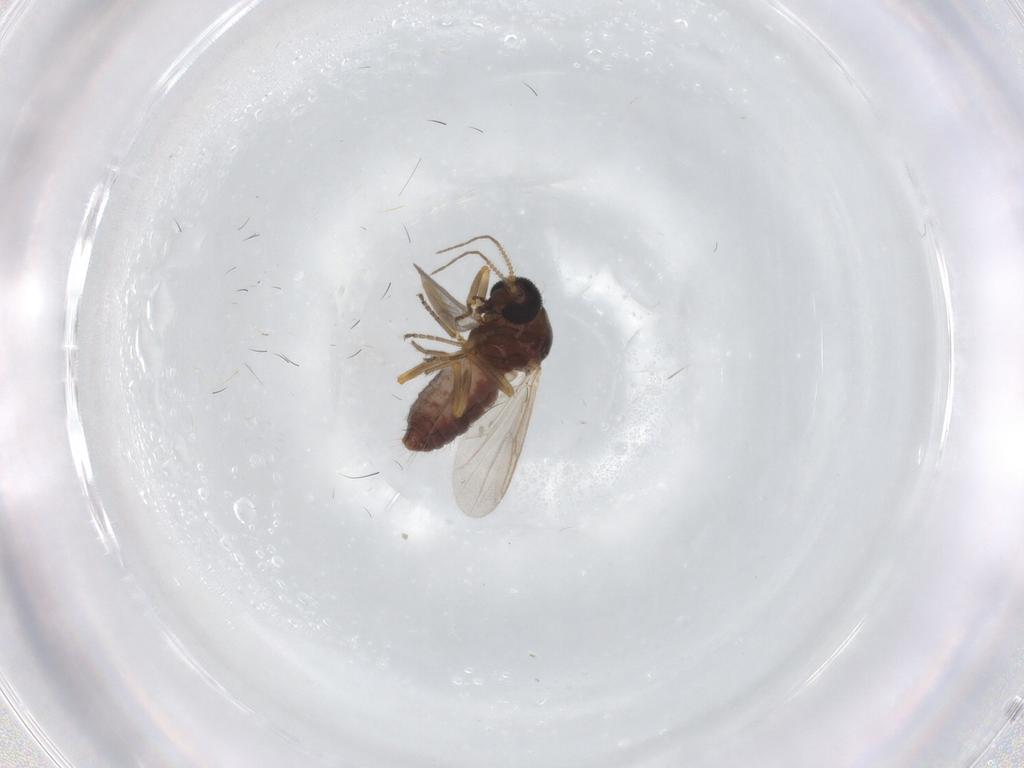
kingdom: Animalia
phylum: Arthropoda
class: Insecta
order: Diptera
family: Ceratopogonidae
